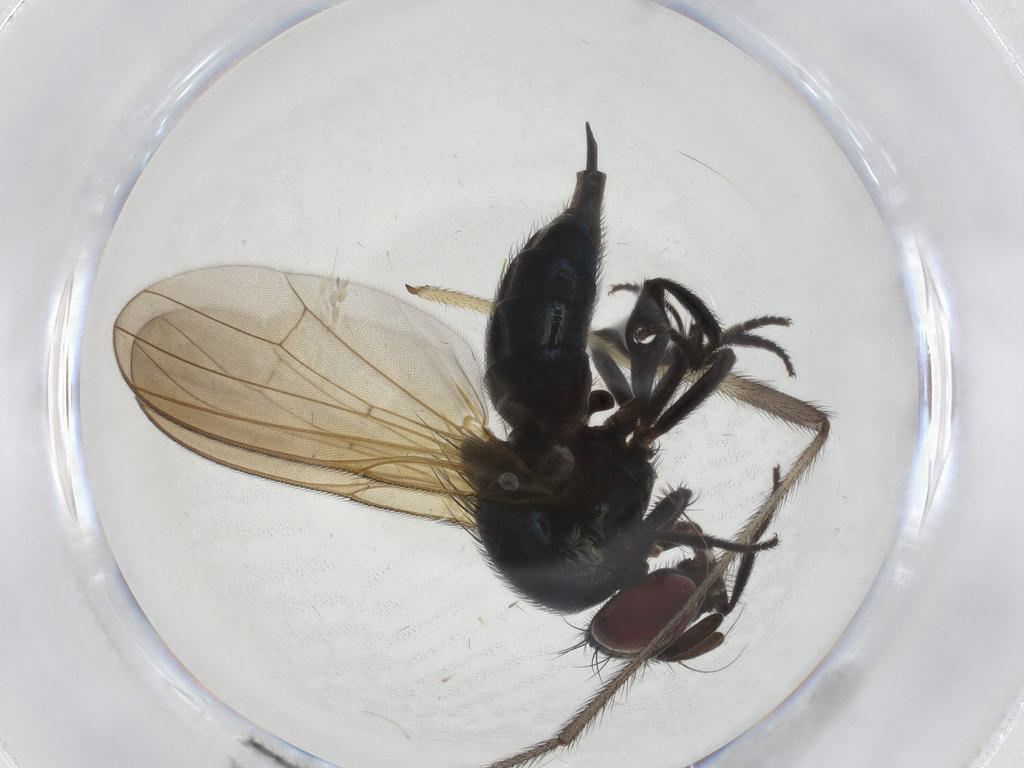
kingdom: Animalia
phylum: Arthropoda
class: Insecta
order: Diptera
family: Limoniidae
